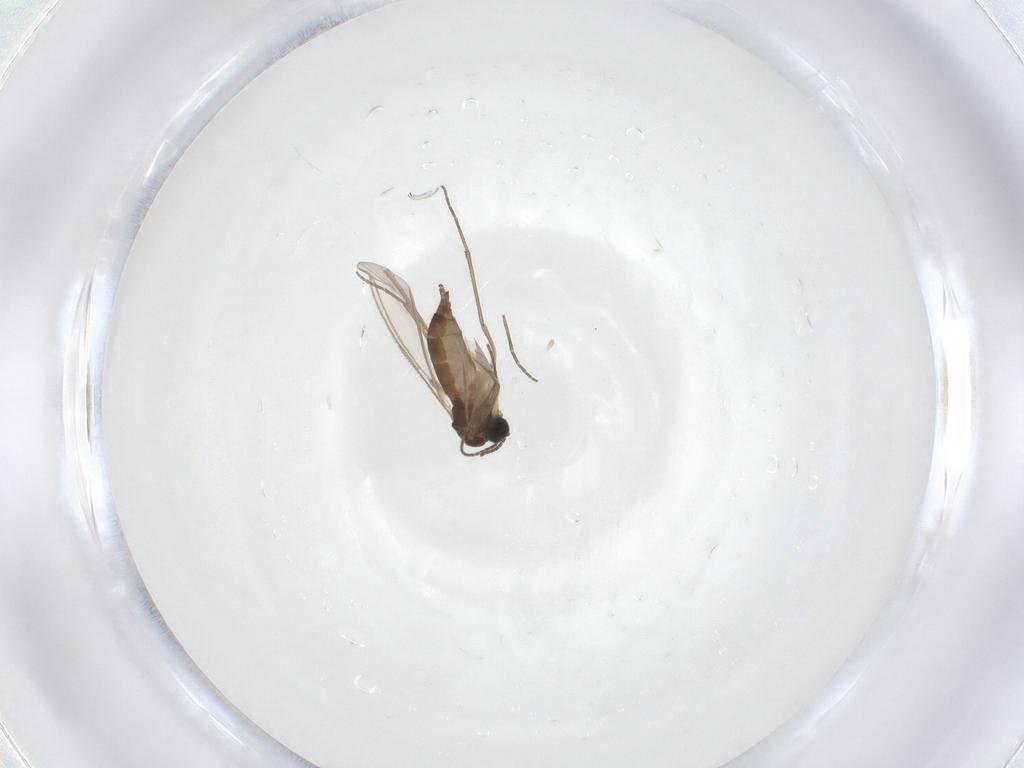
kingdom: Animalia
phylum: Arthropoda
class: Insecta
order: Diptera
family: Sciaridae
